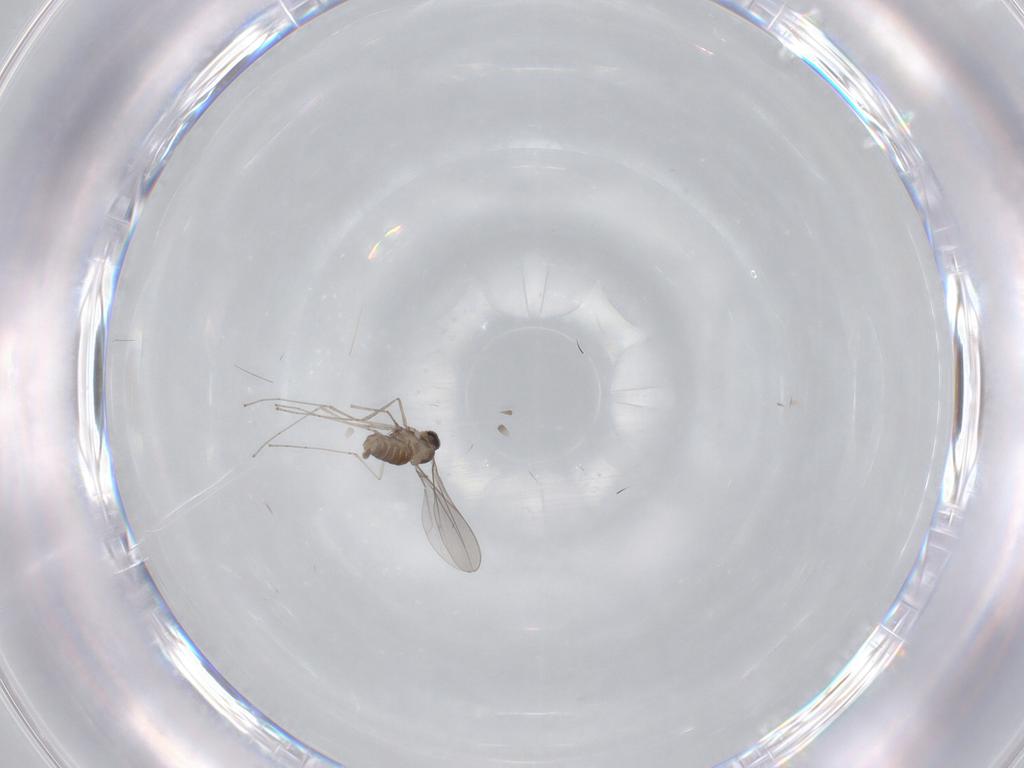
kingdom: Animalia
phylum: Arthropoda
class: Insecta
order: Diptera
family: Cecidomyiidae
